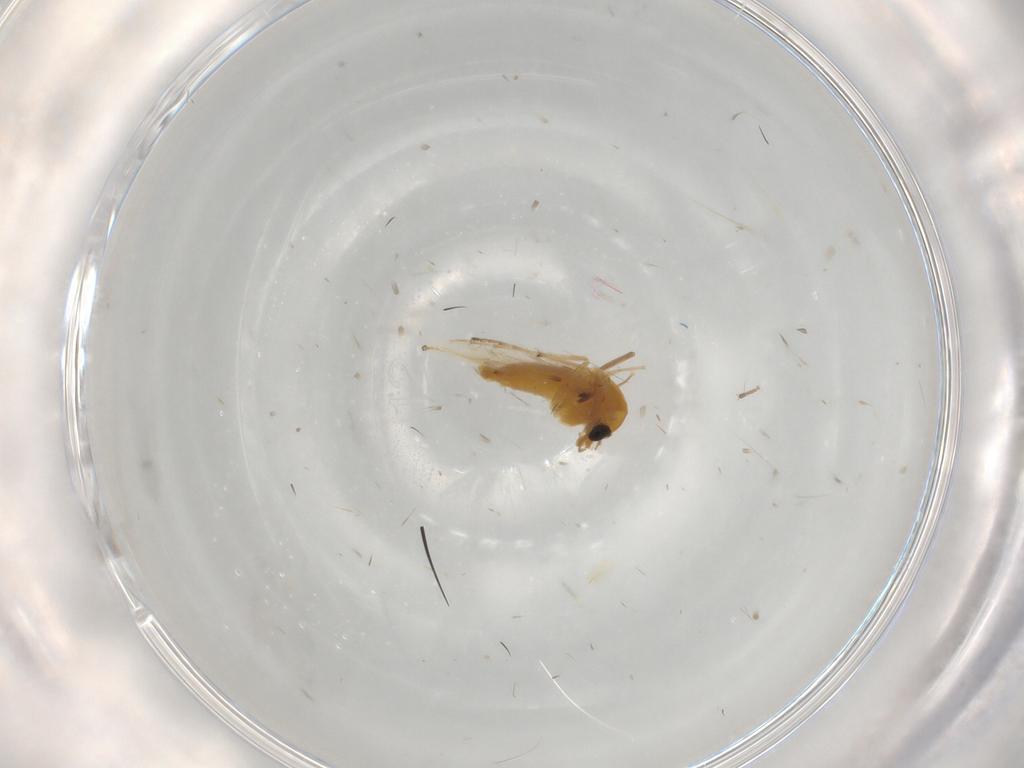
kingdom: Animalia
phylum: Arthropoda
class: Insecta
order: Diptera
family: Chironomidae
